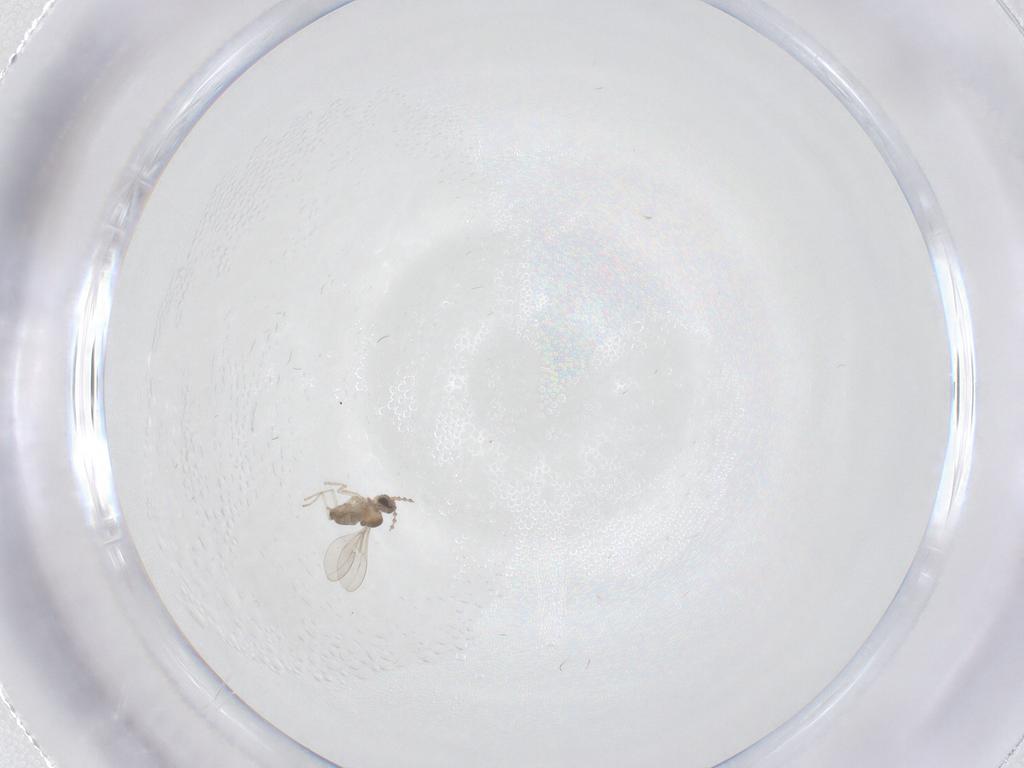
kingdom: Animalia
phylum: Arthropoda
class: Insecta
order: Diptera
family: Cecidomyiidae
